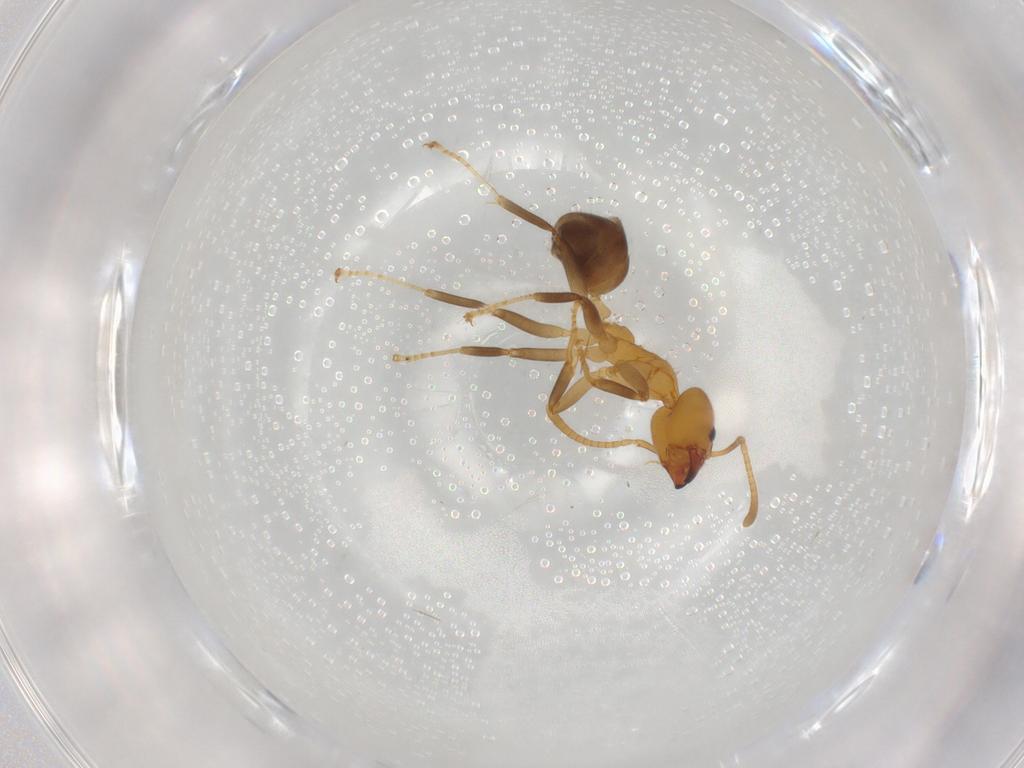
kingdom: Animalia
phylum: Arthropoda
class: Insecta
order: Hymenoptera
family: Formicidae
